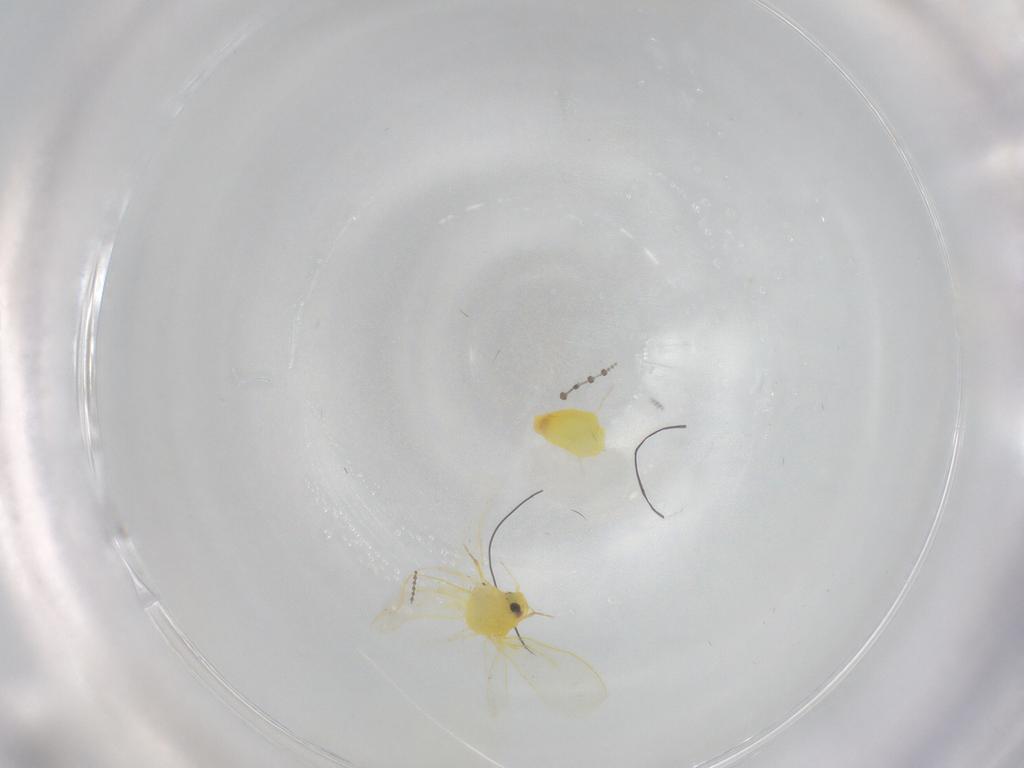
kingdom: Animalia
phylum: Arthropoda
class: Insecta
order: Hemiptera
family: Aleyrodidae
